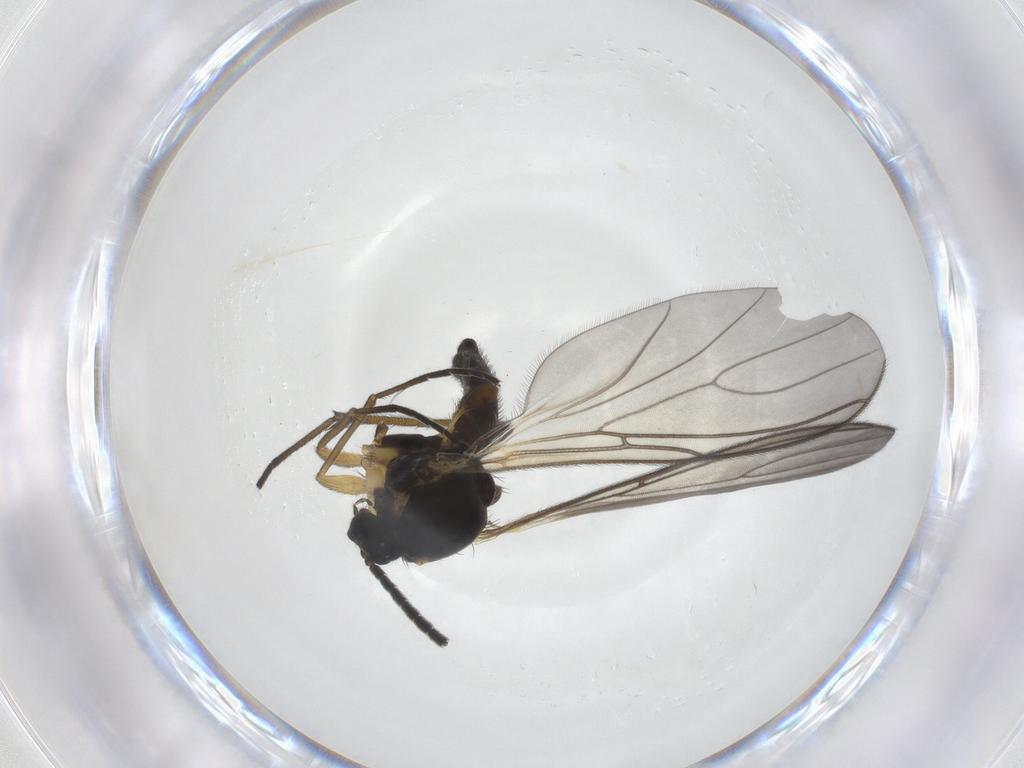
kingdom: Animalia
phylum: Arthropoda
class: Insecta
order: Diptera
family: Sciaridae
